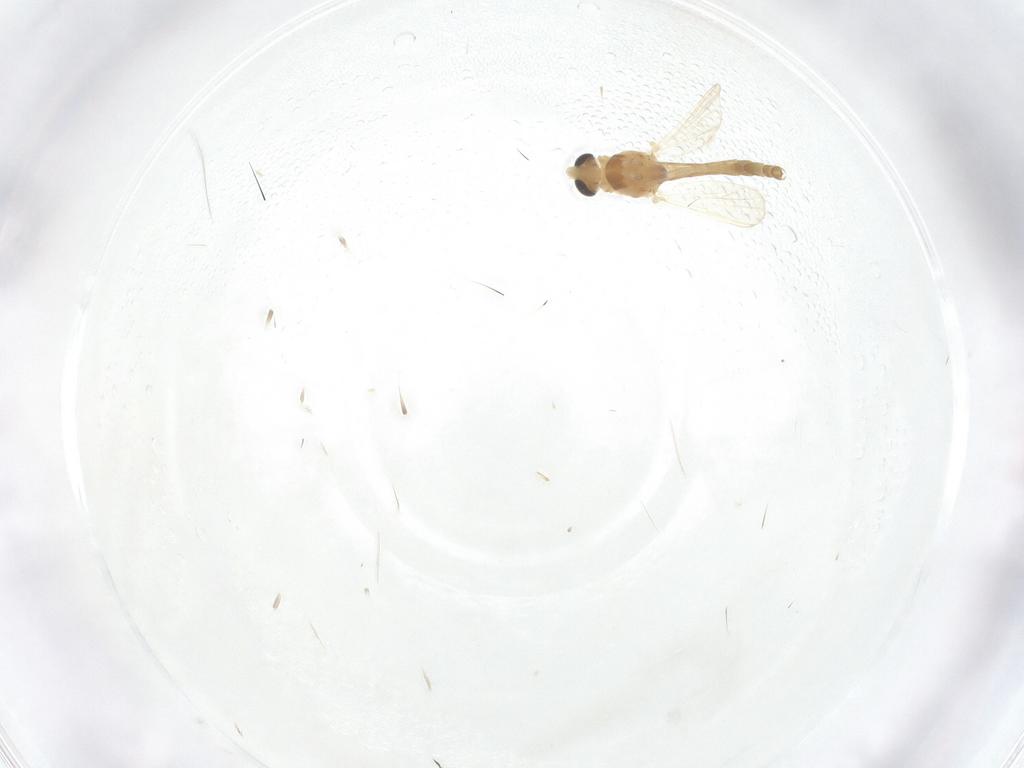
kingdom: Animalia
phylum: Arthropoda
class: Insecta
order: Diptera
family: Chironomidae
